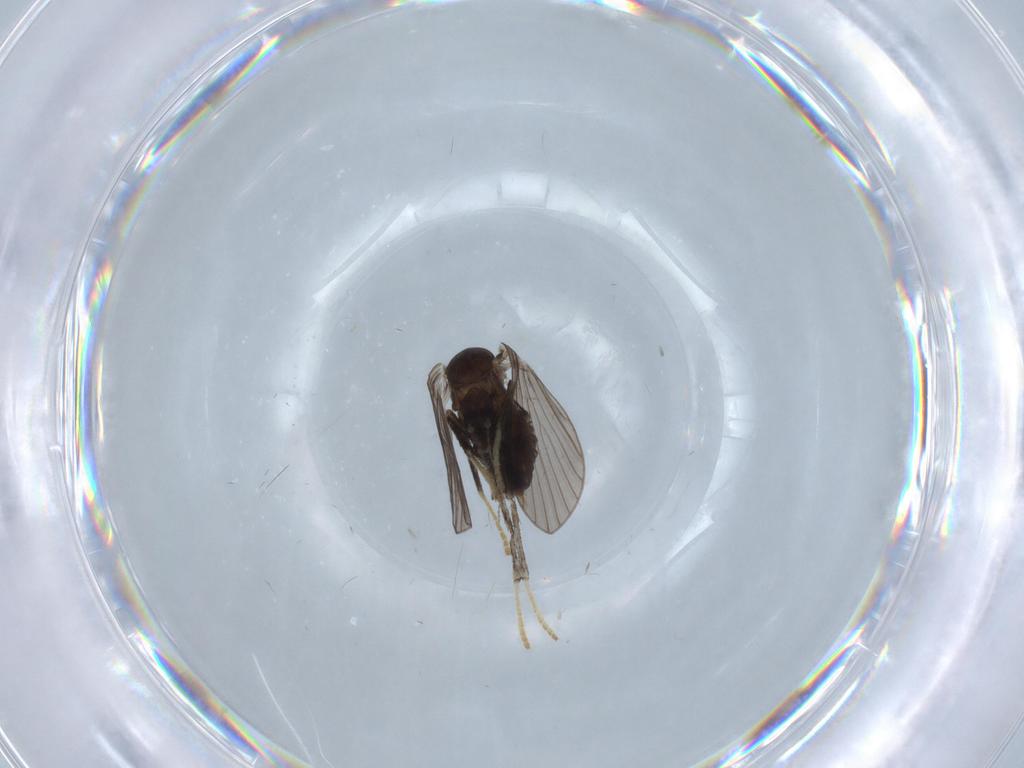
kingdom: Animalia
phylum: Arthropoda
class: Insecta
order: Diptera
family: Psychodidae
